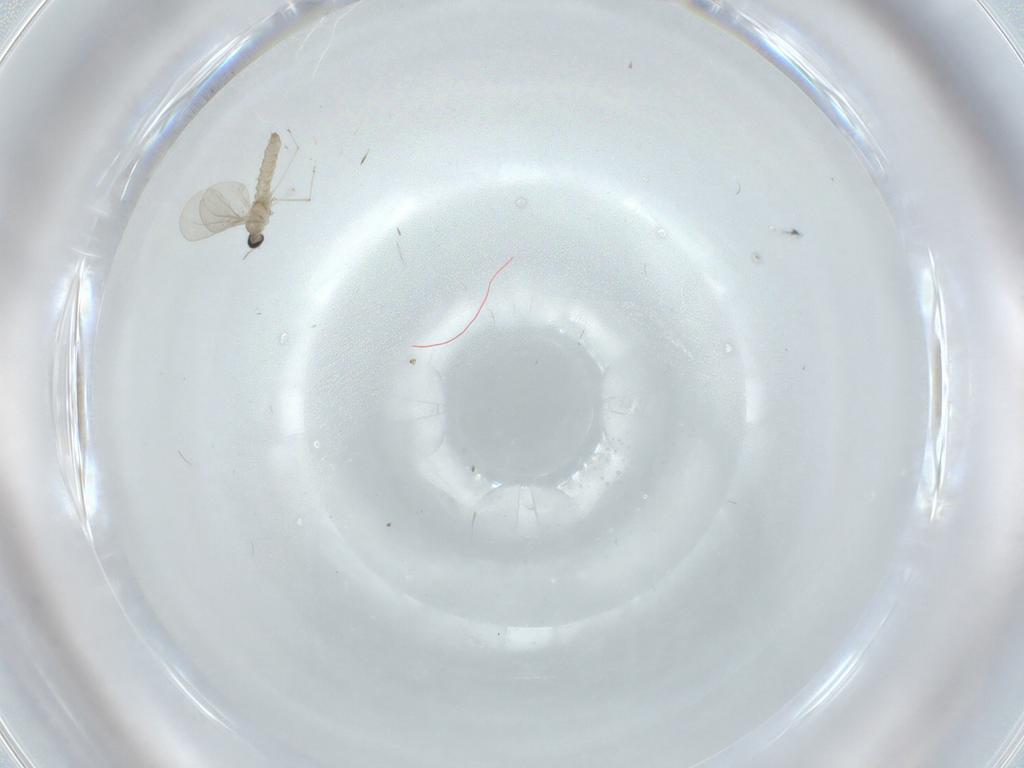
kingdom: Animalia
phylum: Arthropoda
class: Insecta
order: Diptera
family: Cecidomyiidae
